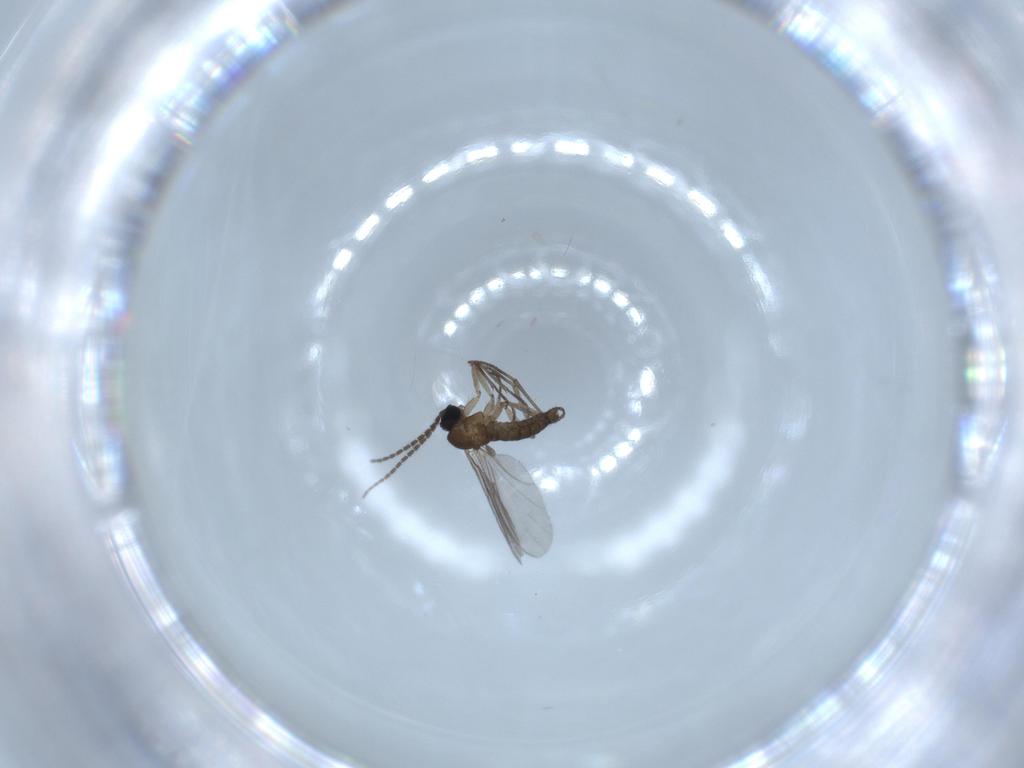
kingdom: Animalia
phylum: Arthropoda
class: Insecta
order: Diptera
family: Sciaridae
